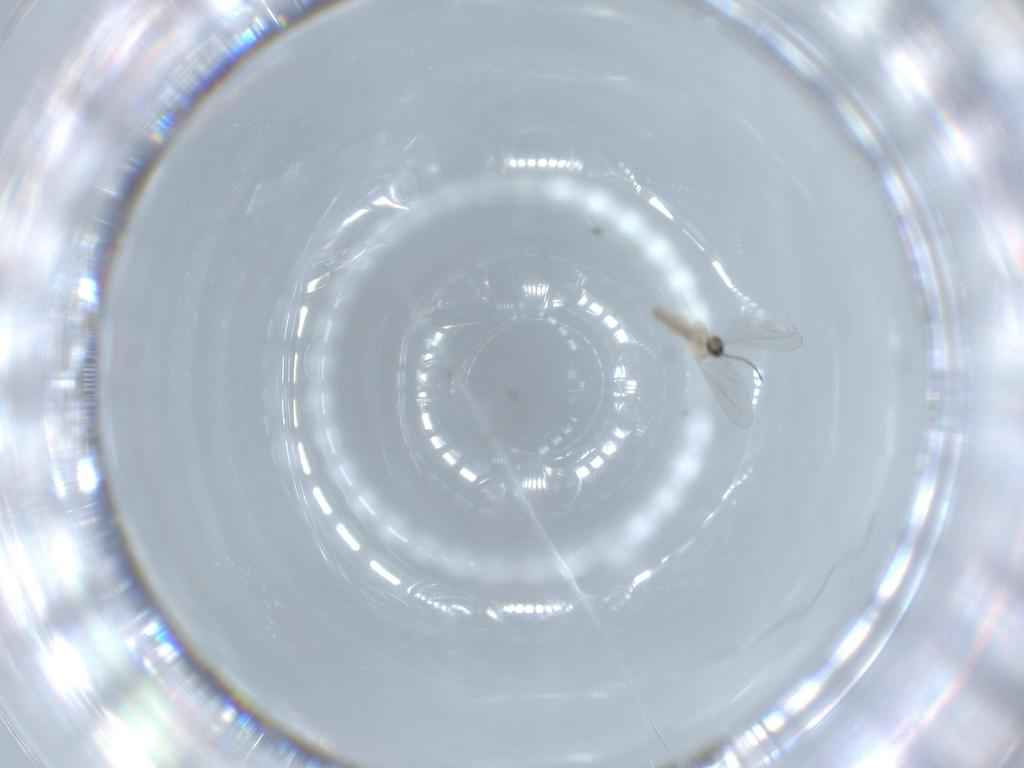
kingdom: Animalia
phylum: Arthropoda
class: Insecta
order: Diptera
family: Cecidomyiidae
